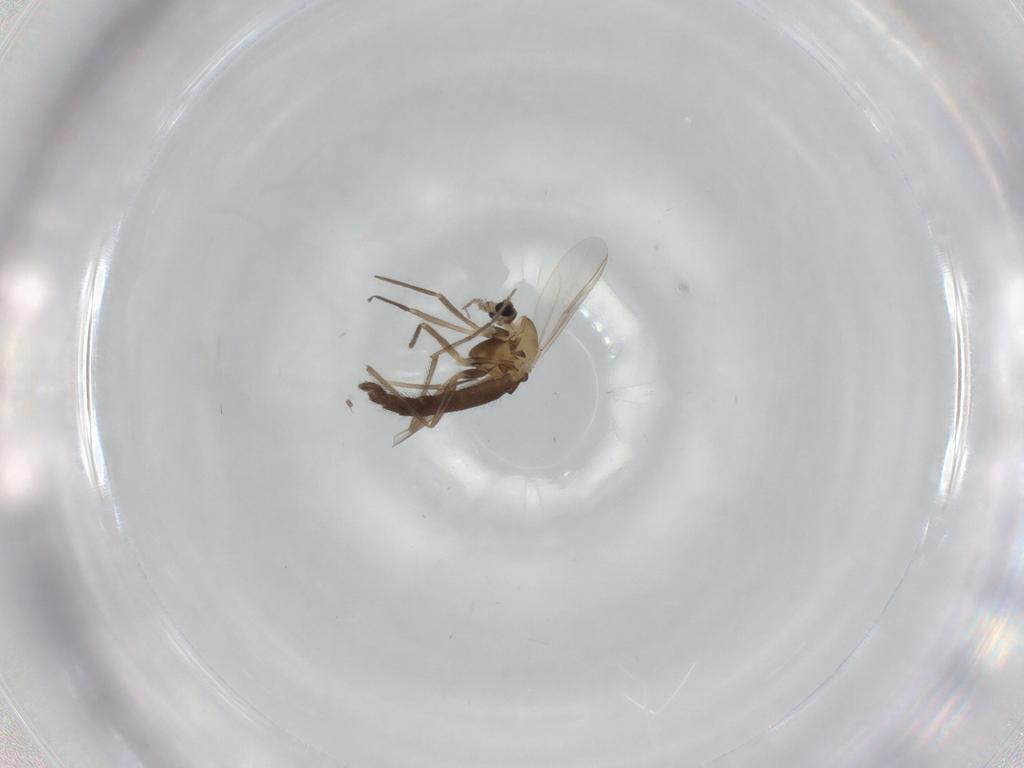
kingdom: Animalia
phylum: Arthropoda
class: Insecta
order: Diptera
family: Chironomidae
